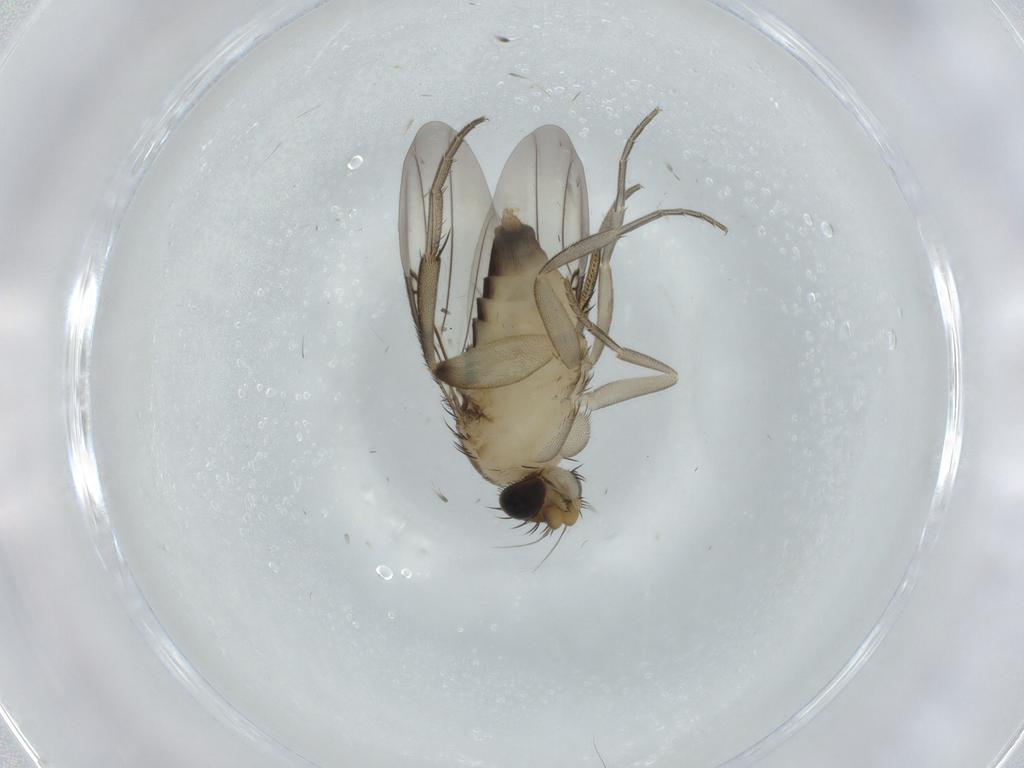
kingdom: Animalia
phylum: Arthropoda
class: Insecta
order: Diptera
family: Phoridae
